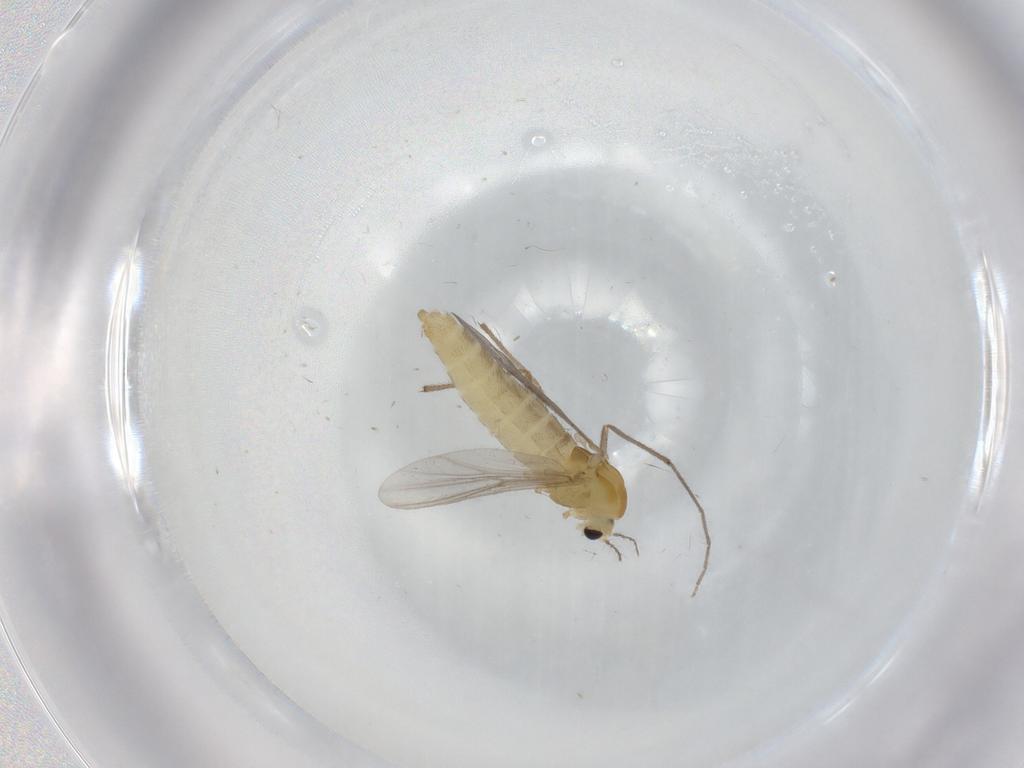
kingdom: Animalia
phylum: Arthropoda
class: Insecta
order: Diptera
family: Chironomidae
